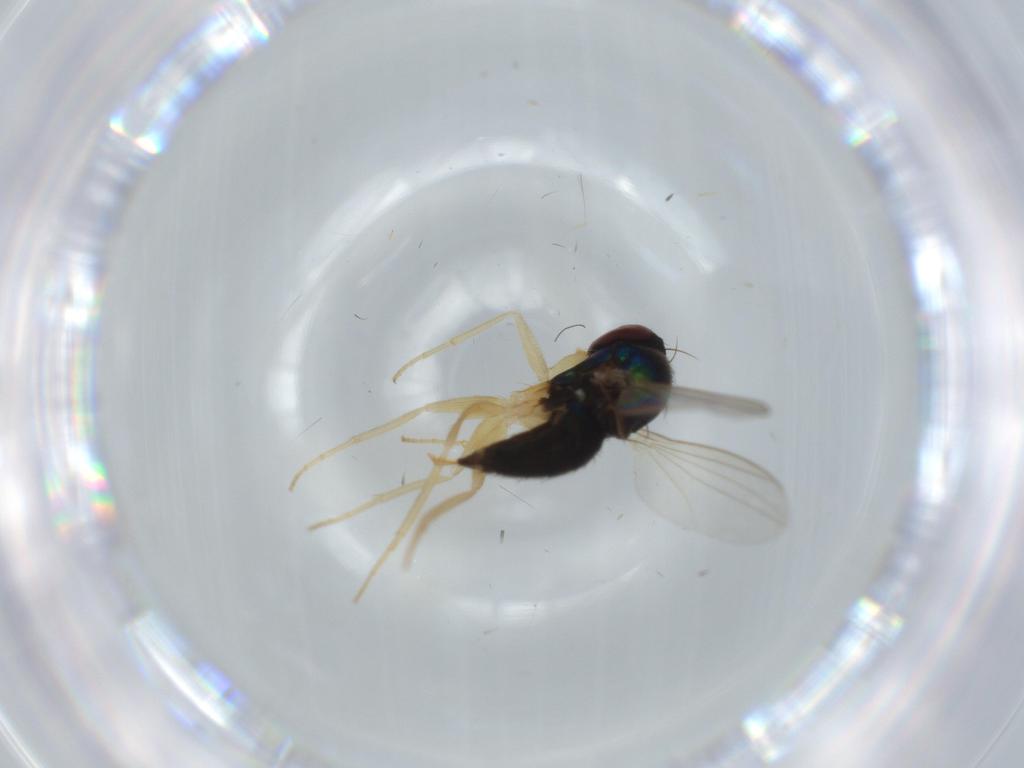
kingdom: Animalia
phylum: Arthropoda
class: Insecta
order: Diptera
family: Dolichopodidae
